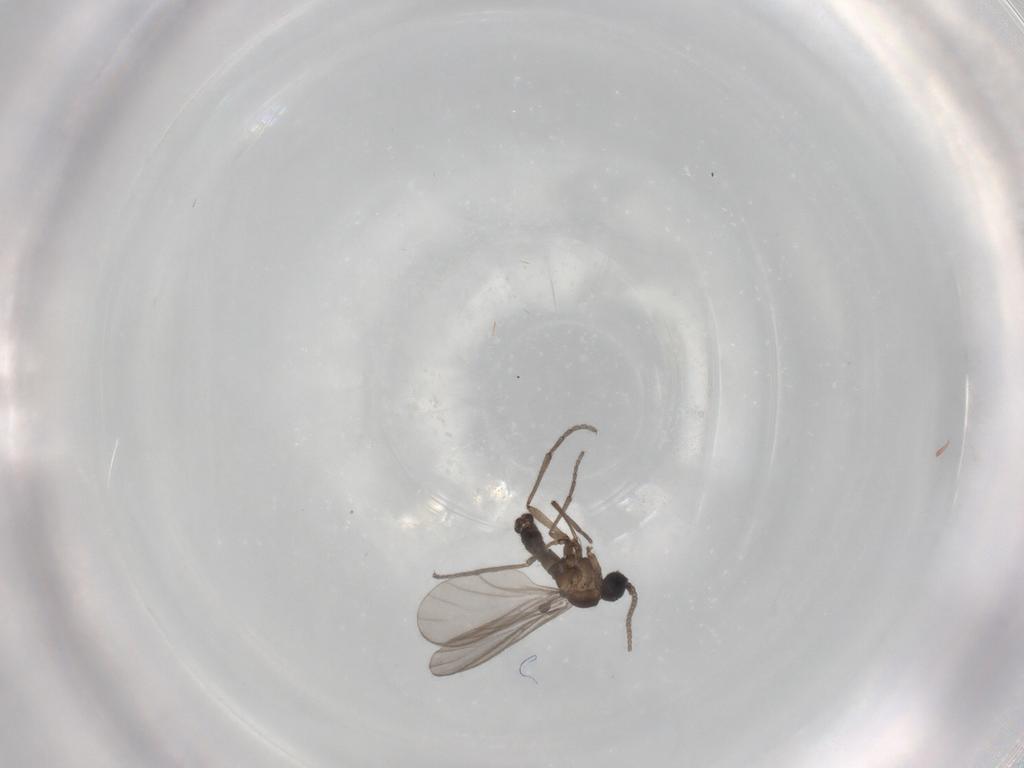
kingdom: Animalia
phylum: Arthropoda
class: Insecta
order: Diptera
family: Sciaridae
